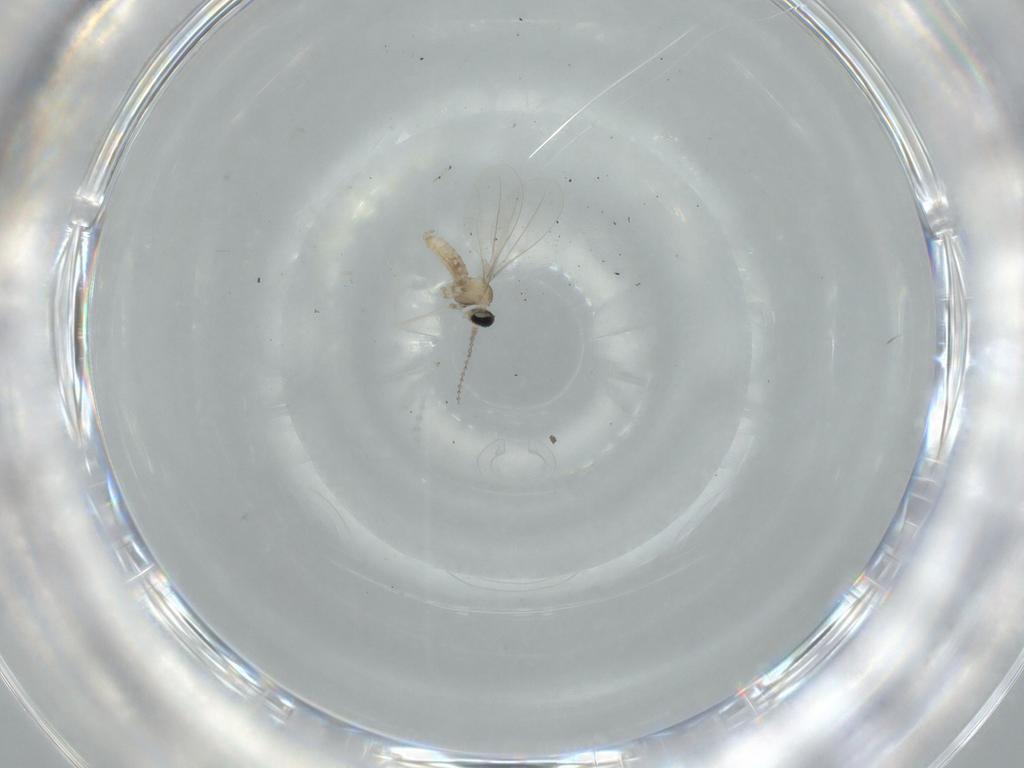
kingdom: Animalia
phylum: Arthropoda
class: Insecta
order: Diptera
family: Cecidomyiidae
